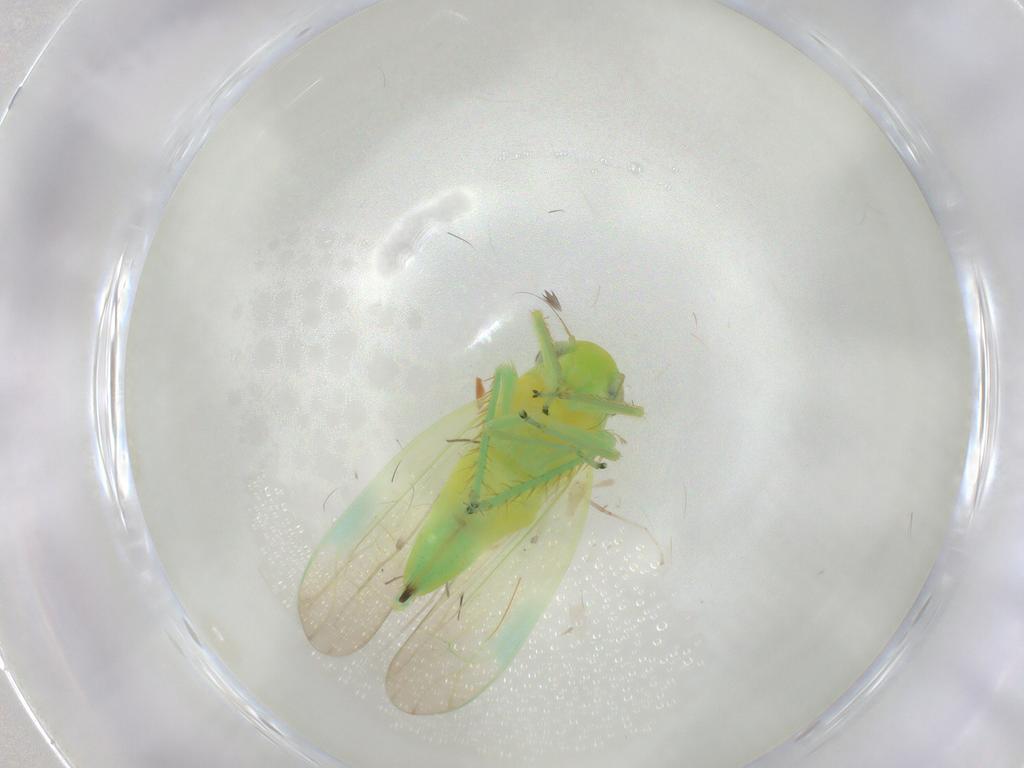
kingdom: Animalia
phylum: Arthropoda
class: Insecta
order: Hemiptera
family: Cicadellidae
